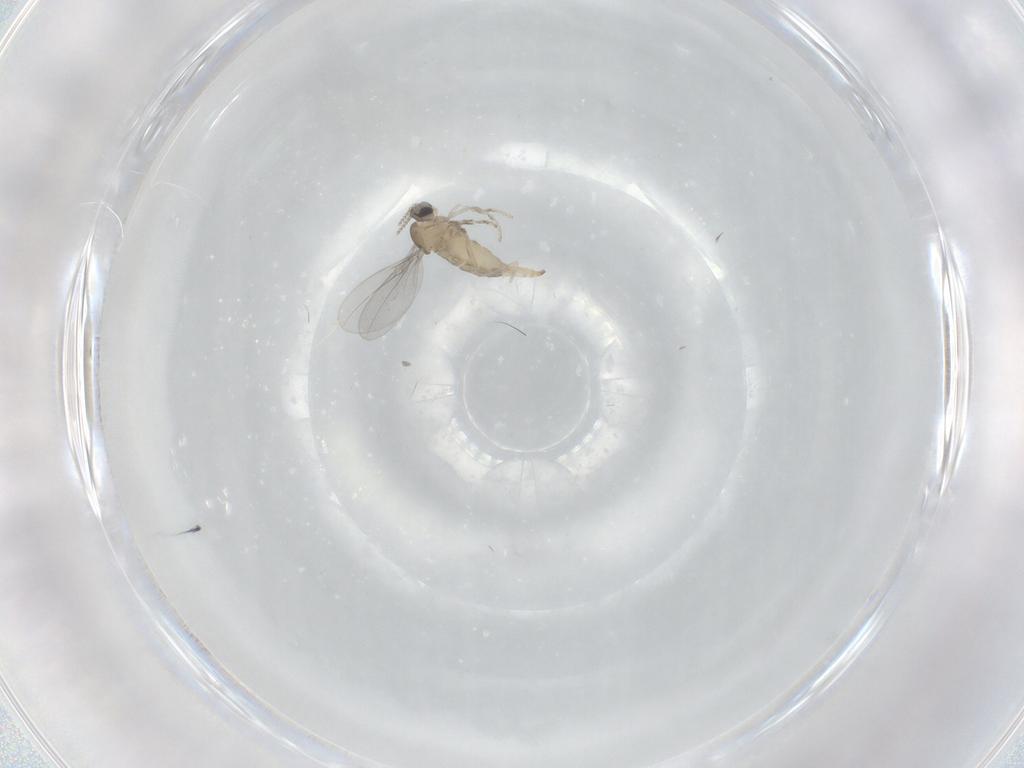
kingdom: Animalia
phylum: Arthropoda
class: Insecta
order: Diptera
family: Cecidomyiidae
